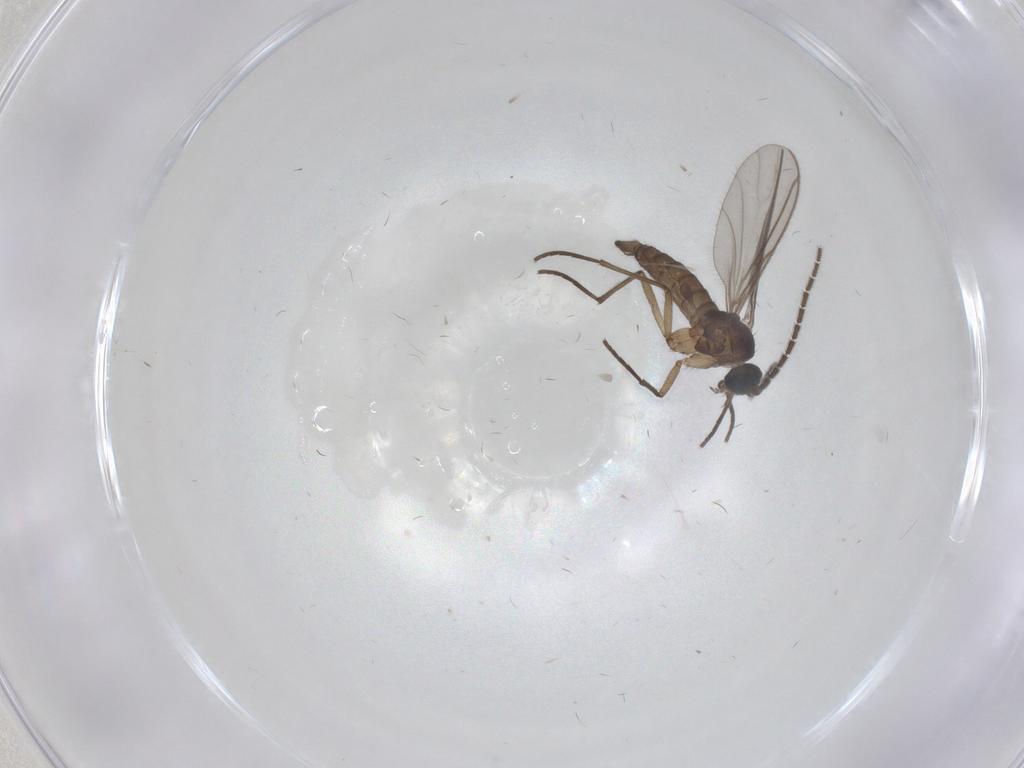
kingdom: Animalia
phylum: Arthropoda
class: Insecta
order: Diptera
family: Sciaridae
